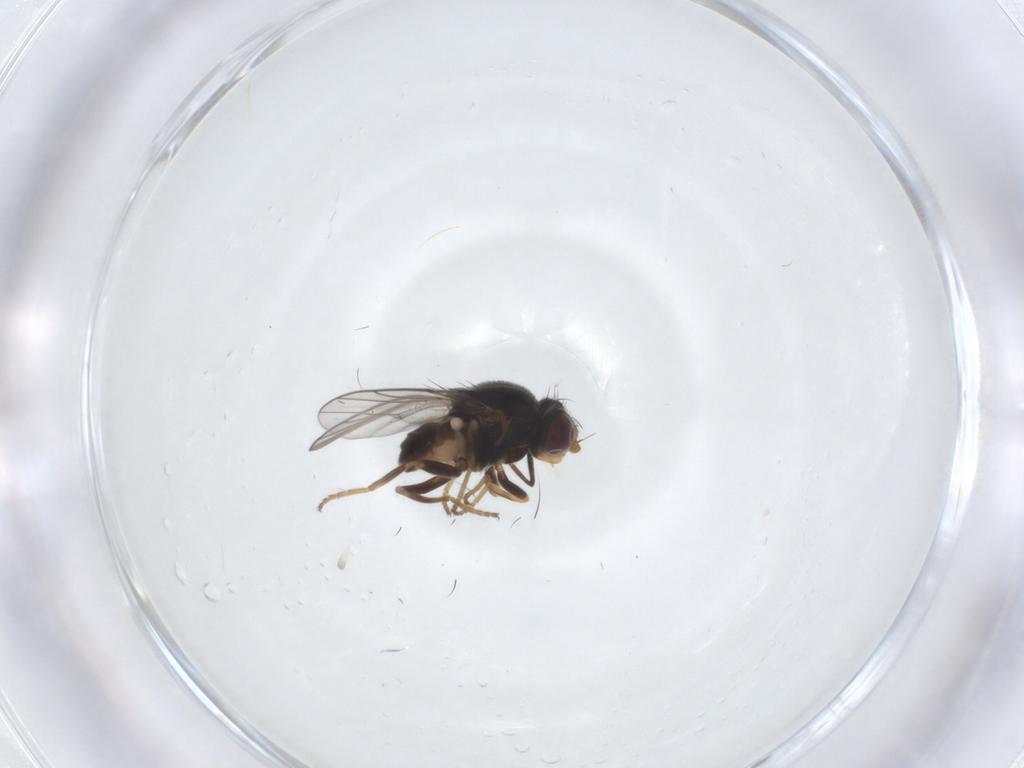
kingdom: Animalia
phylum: Arthropoda
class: Insecta
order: Diptera
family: Chloropidae
